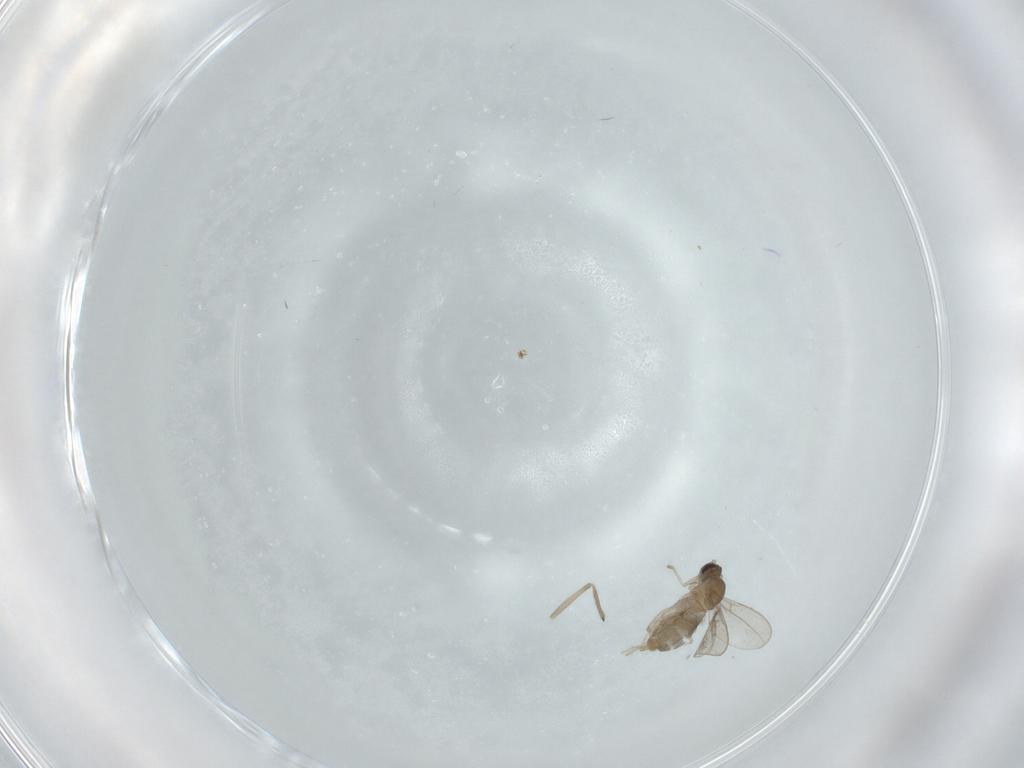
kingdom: Animalia
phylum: Arthropoda
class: Insecta
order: Diptera
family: Cecidomyiidae
